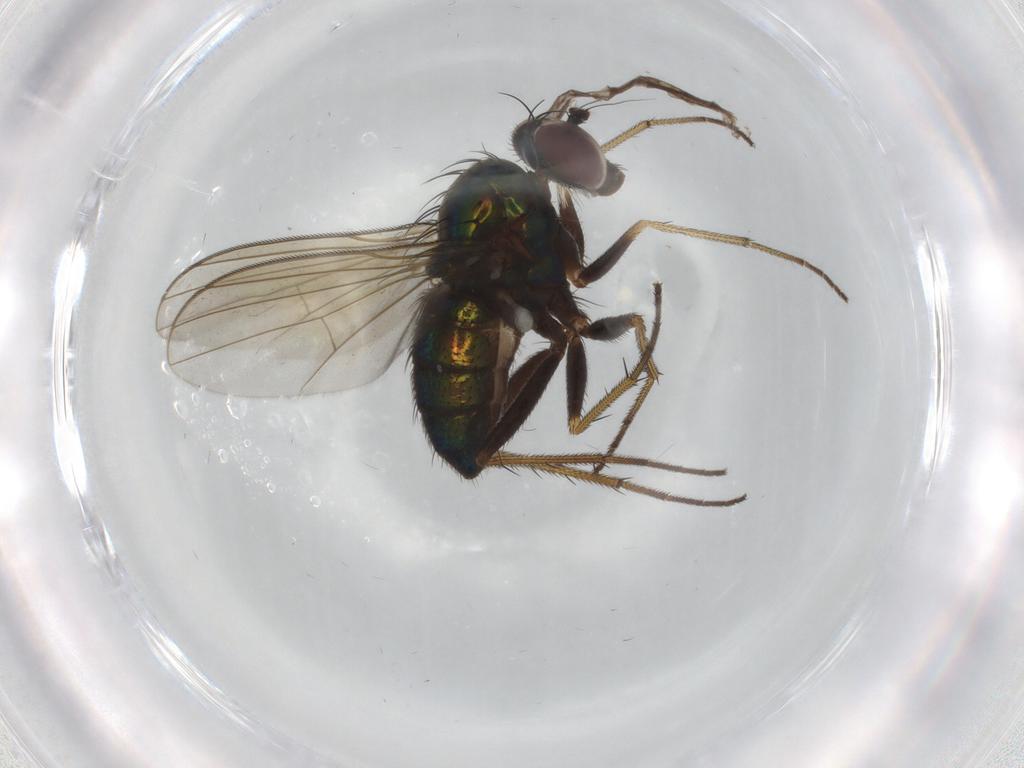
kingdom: Animalia
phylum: Arthropoda
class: Insecta
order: Diptera
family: Dolichopodidae
